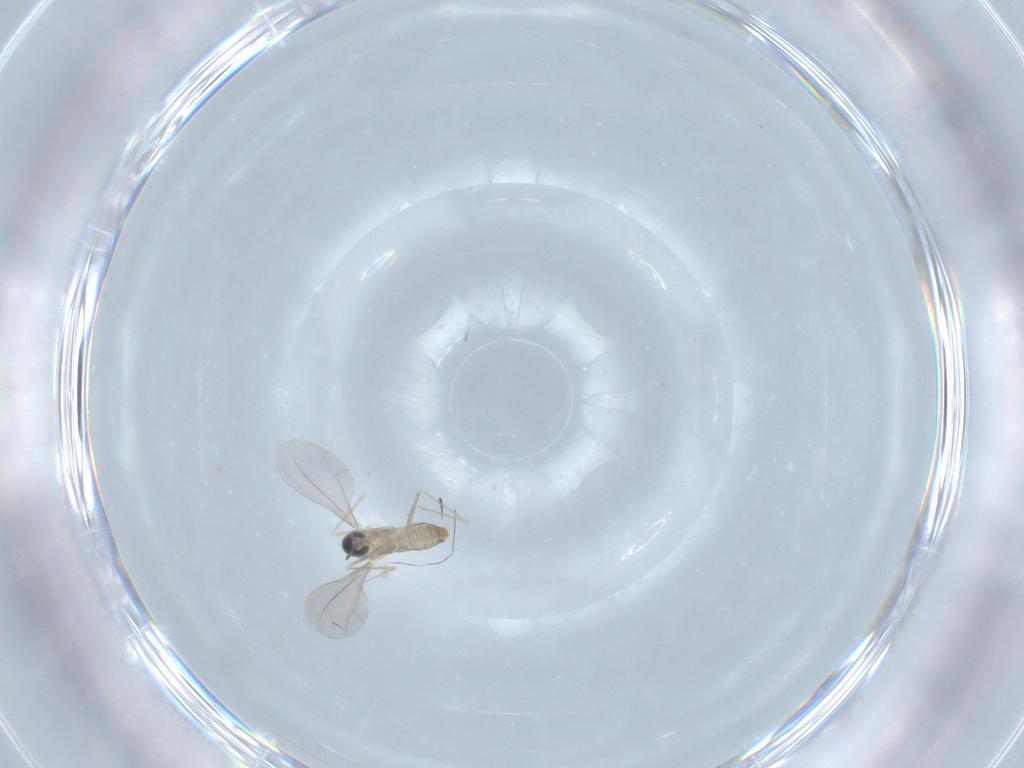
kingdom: Animalia
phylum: Arthropoda
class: Insecta
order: Diptera
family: Cecidomyiidae
